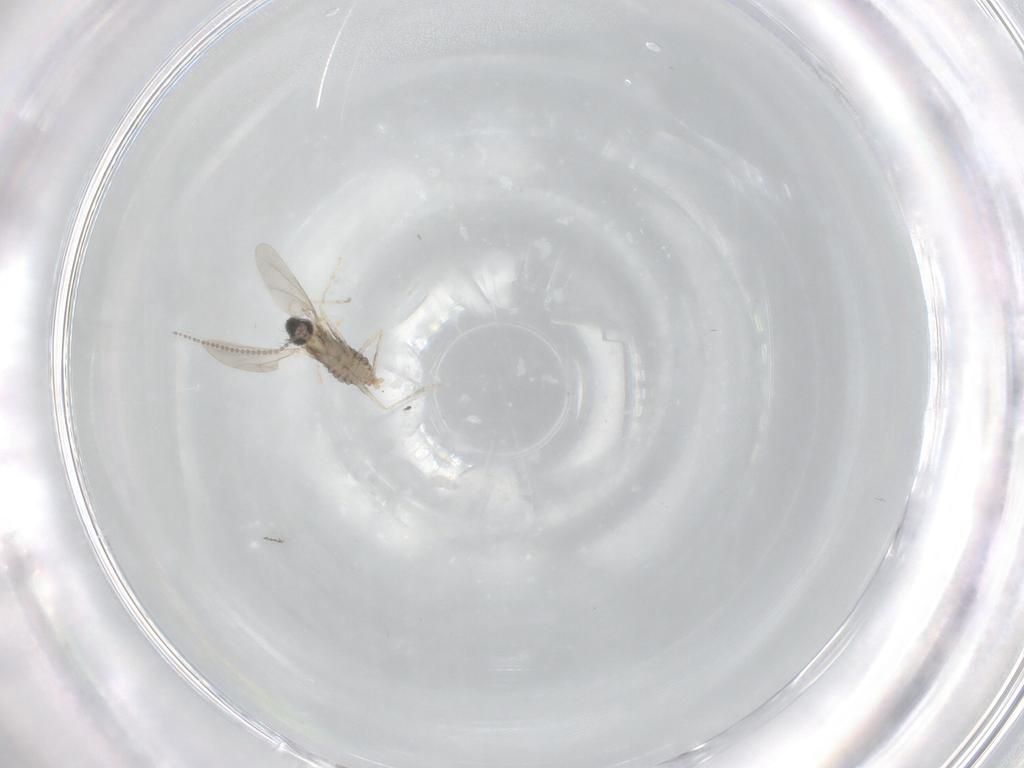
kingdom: Animalia
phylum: Arthropoda
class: Insecta
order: Diptera
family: Cecidomyiidae
